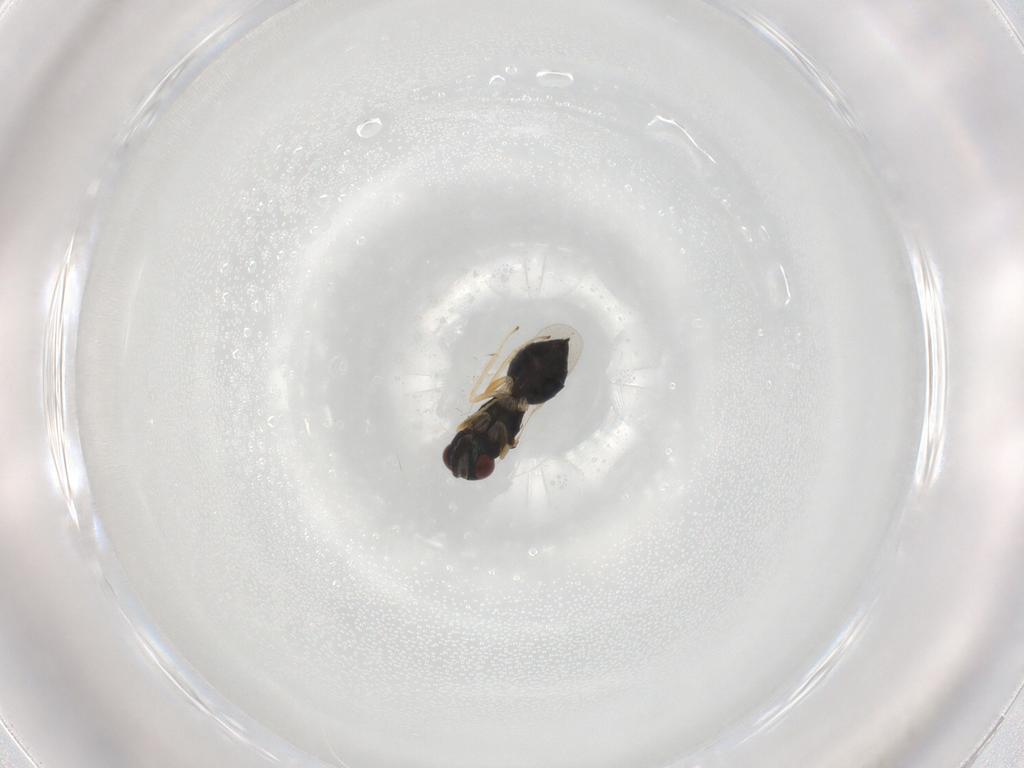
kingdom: Animalia
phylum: Arthropoda
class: Insecta
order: Hymenoptera
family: Eulophidae
